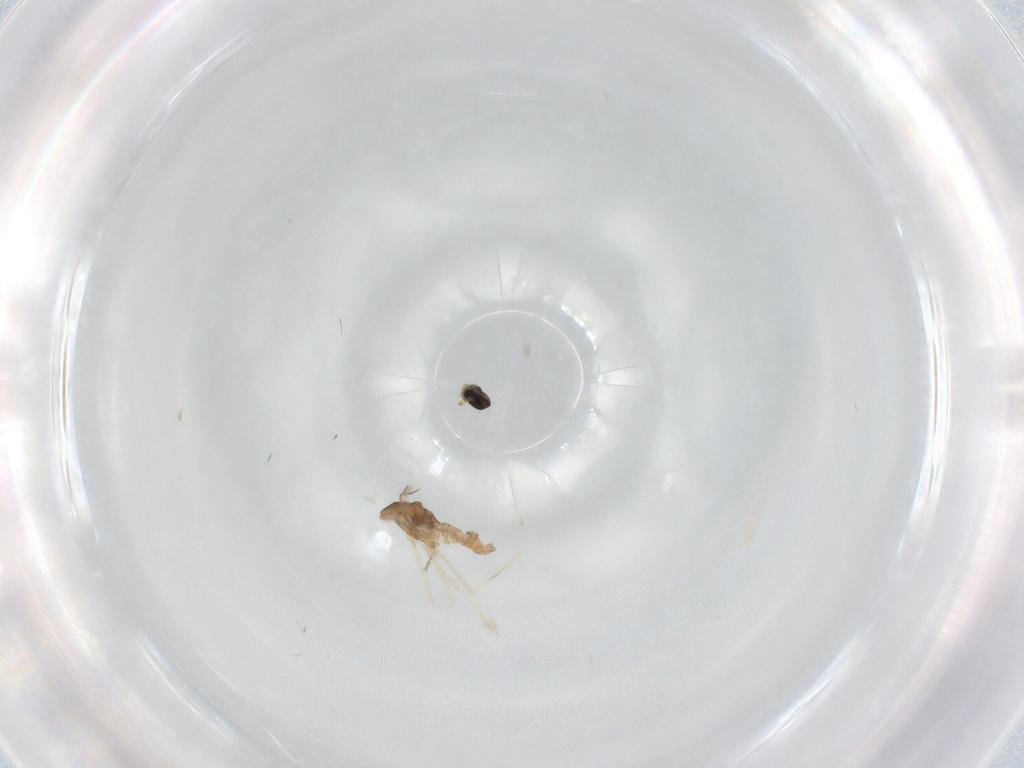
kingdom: Animalia
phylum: Arthropoda
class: Insecta
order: Diptera
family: Cecidomyiidae
